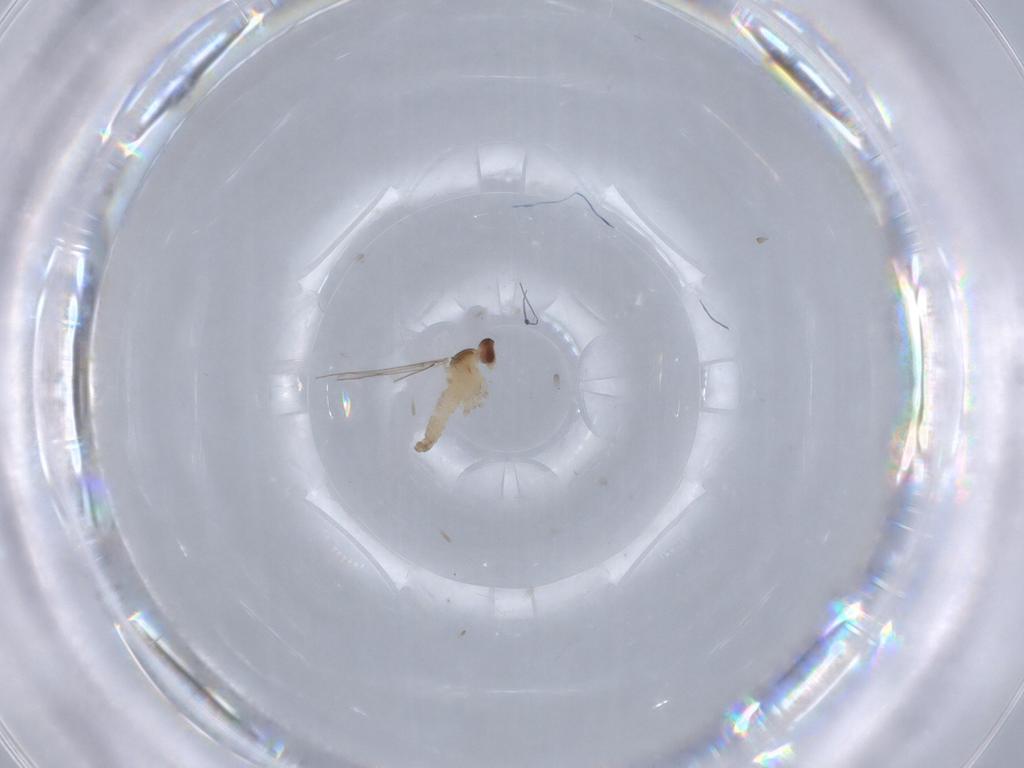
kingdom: Animalia
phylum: Arthropoda
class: Insecta
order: Diptera
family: Cecidomyiidae
